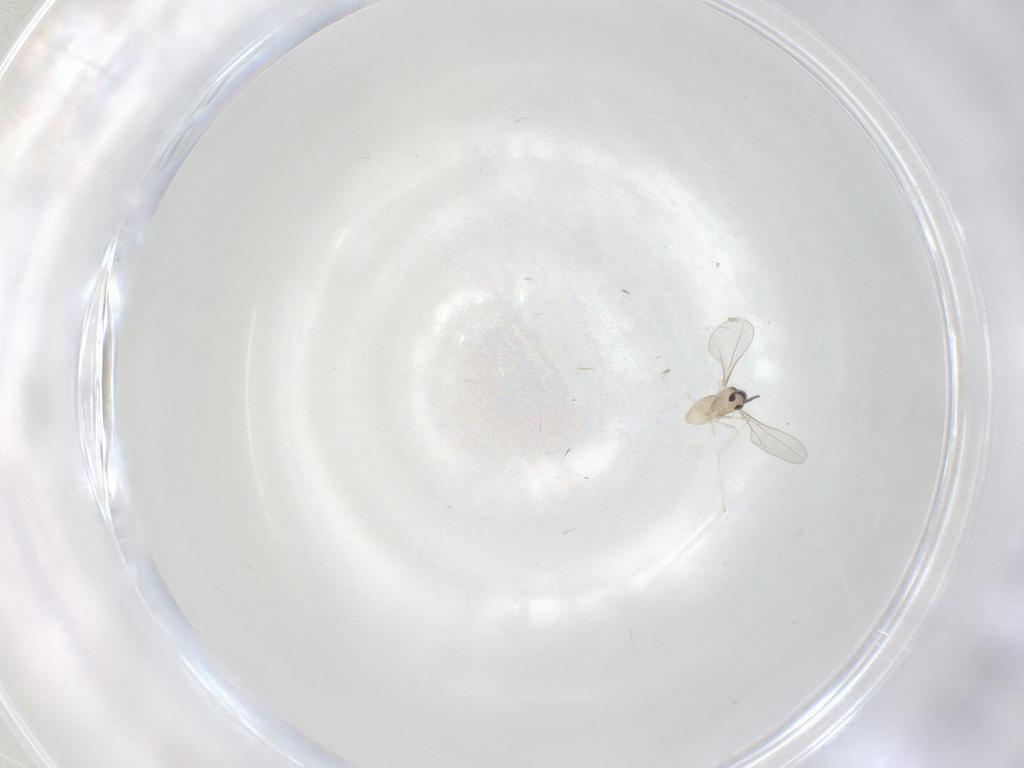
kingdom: Animalia
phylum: Arthropoda
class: Insecta
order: Diptera
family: Cecidomyiidae
